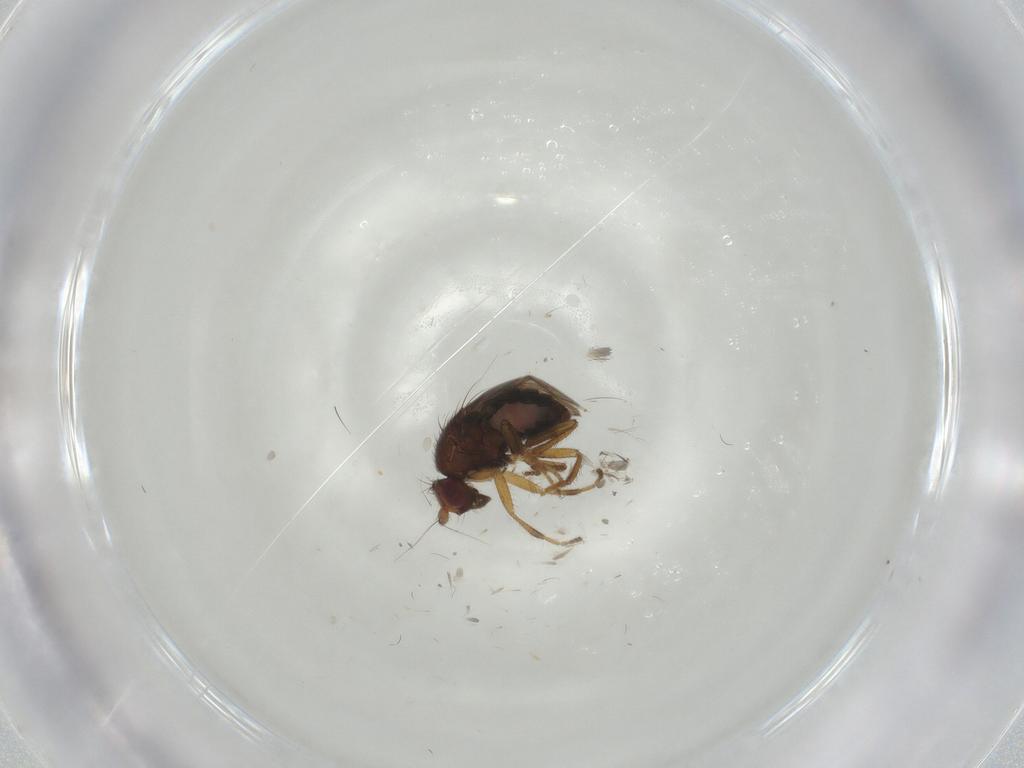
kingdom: Animalia
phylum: Arthropoda
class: Insecta
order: Diptera
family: Sphaeroceridae
